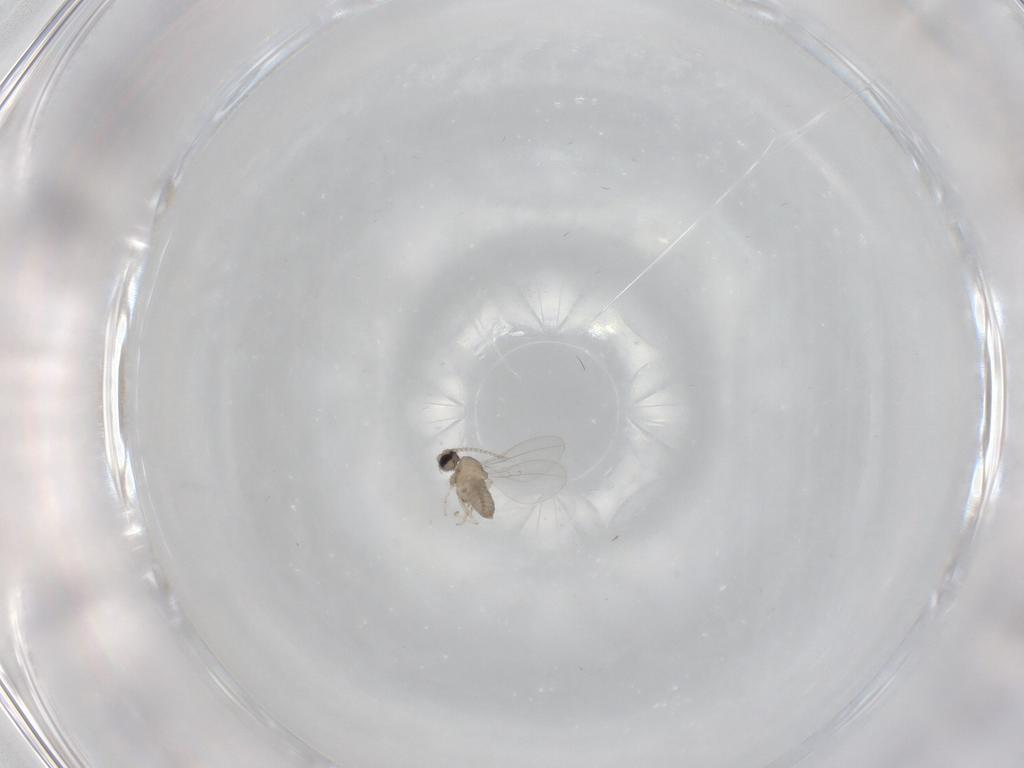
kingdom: Animalia
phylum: Arthropoda
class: Insecta
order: Diptera
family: Cecidomyiidae
